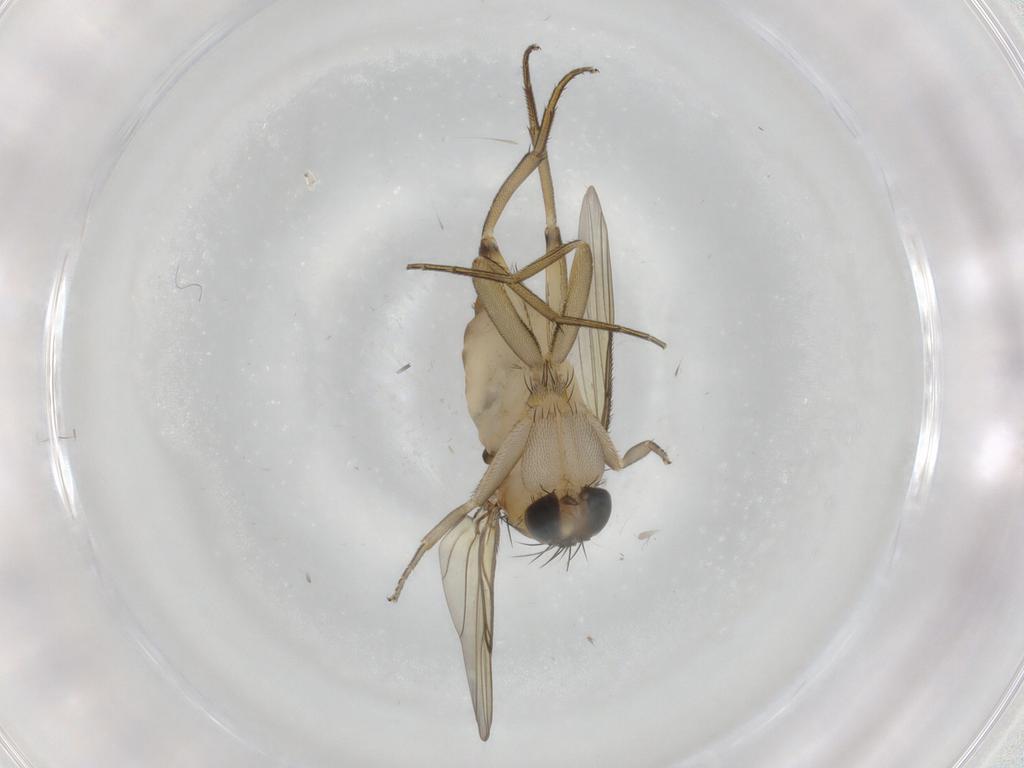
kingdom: Animalia
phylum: Arthropoda
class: Insecta
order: Diptera
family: Phoridae
